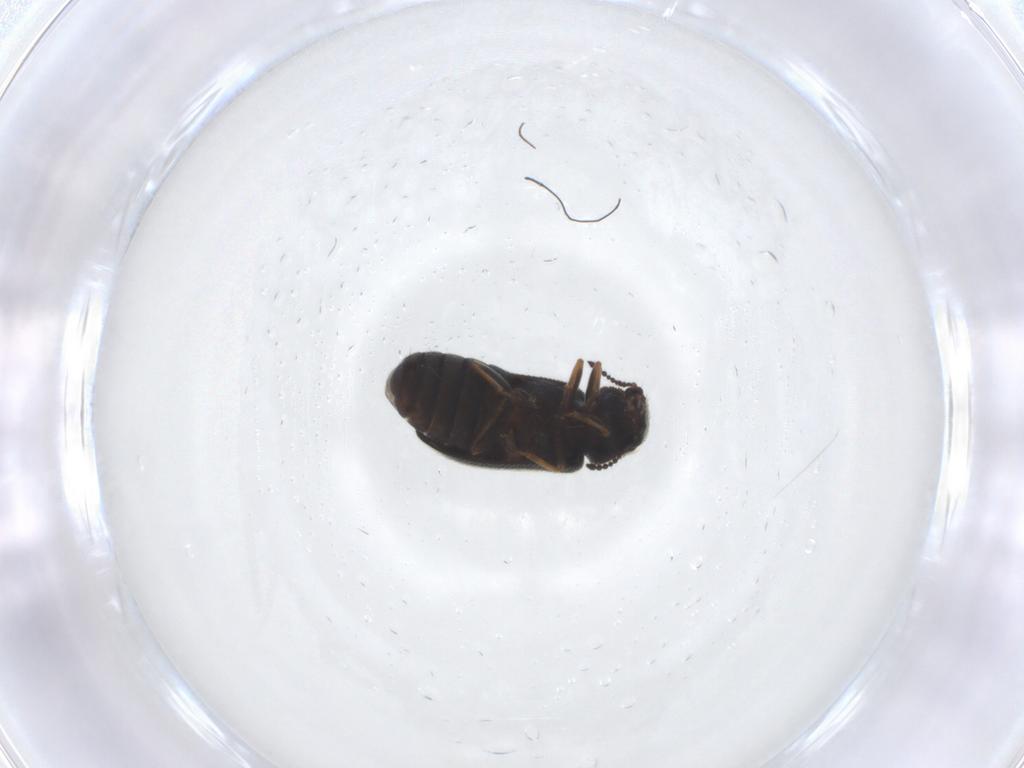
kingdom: Animalia
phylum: Arthropoda
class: Insecta
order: Coleoptera
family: Melyridae
